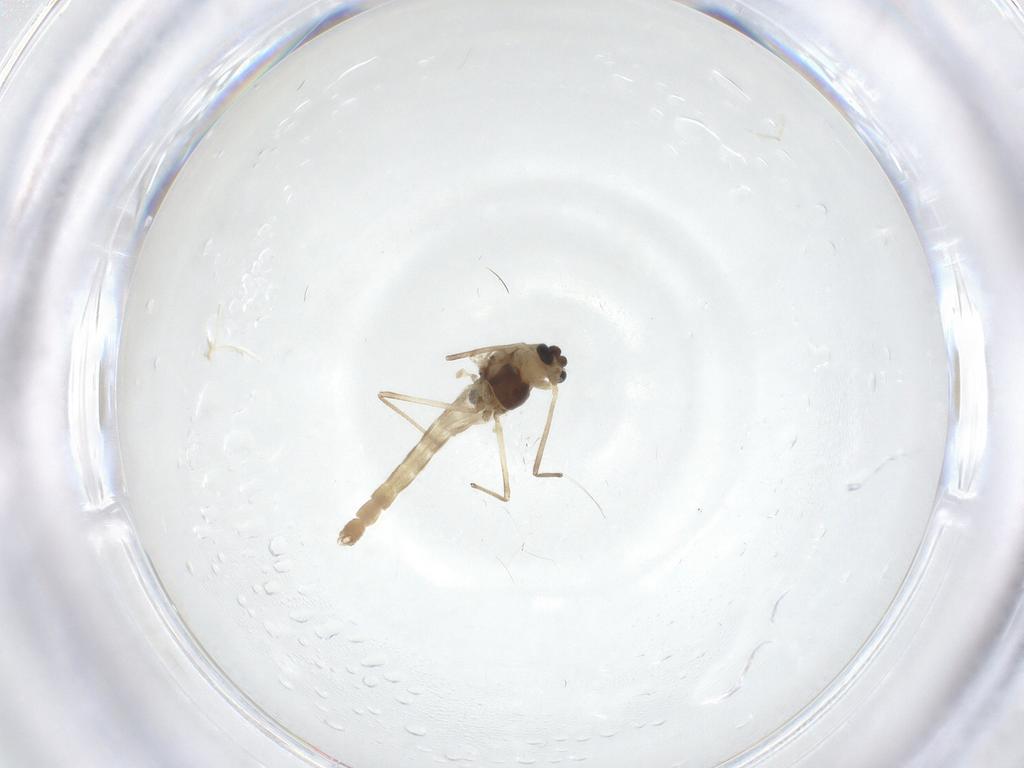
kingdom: Animalia
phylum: Arthropoda
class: Insecta
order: Diptera
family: Chironomidae
